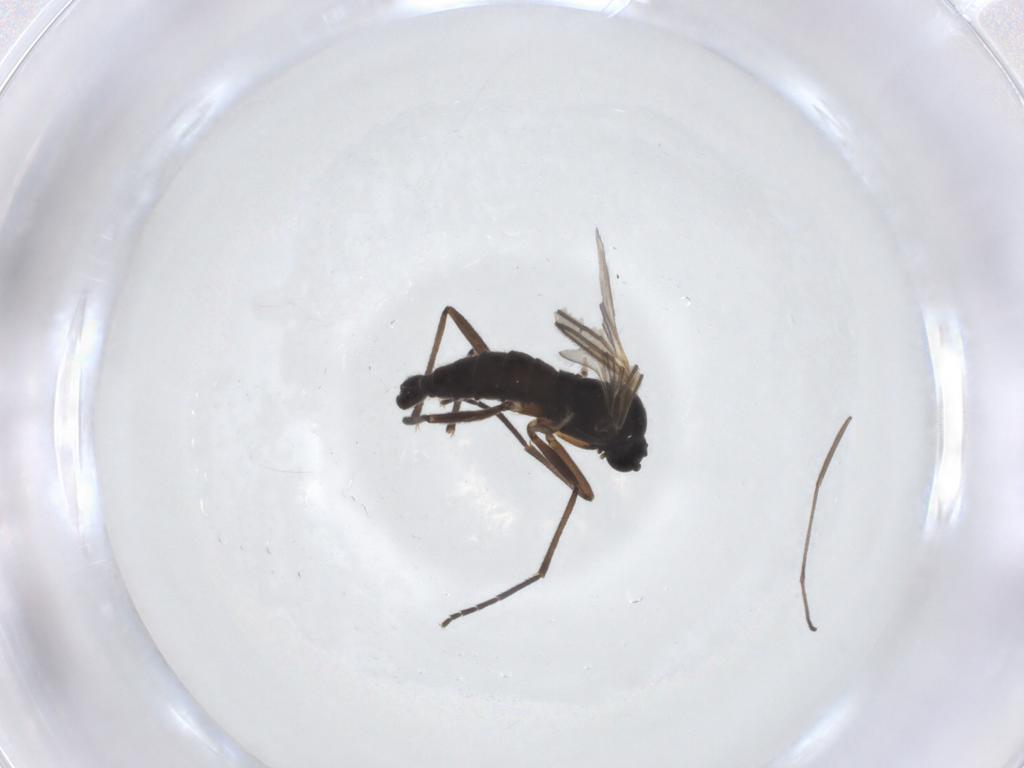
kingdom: Animalia
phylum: Arthropoda
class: Insecta
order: Diptera
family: Sciaridae
